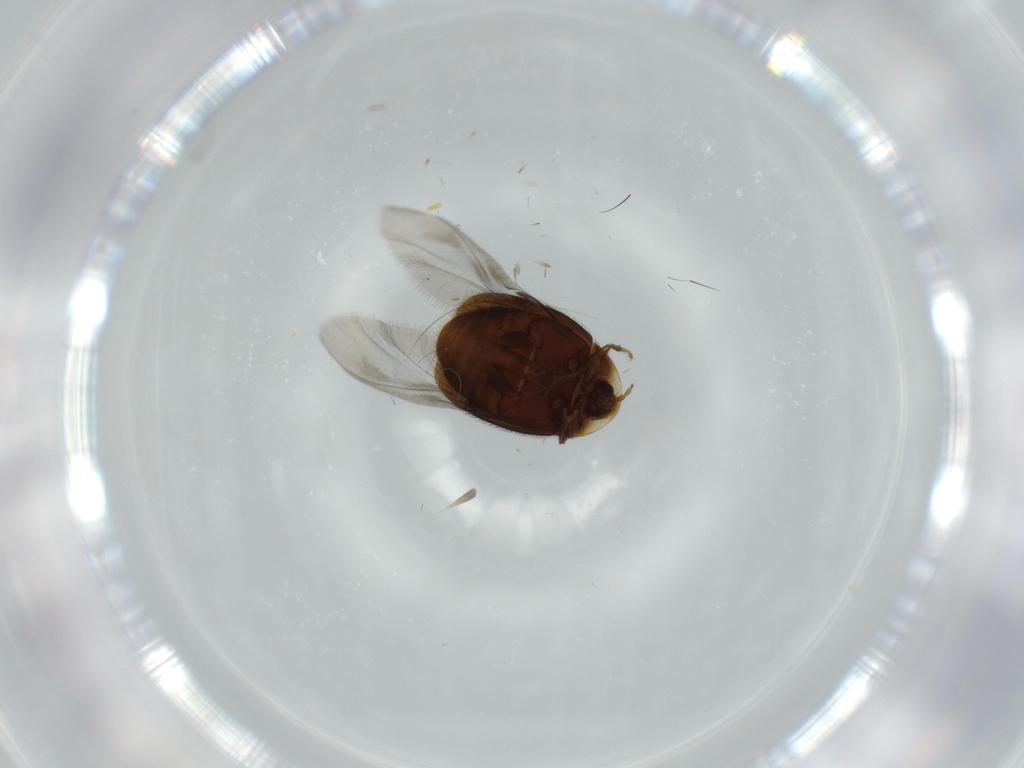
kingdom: Animalia
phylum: Arthropoda
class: Insecta
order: Coleoptera
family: Corylophidae
